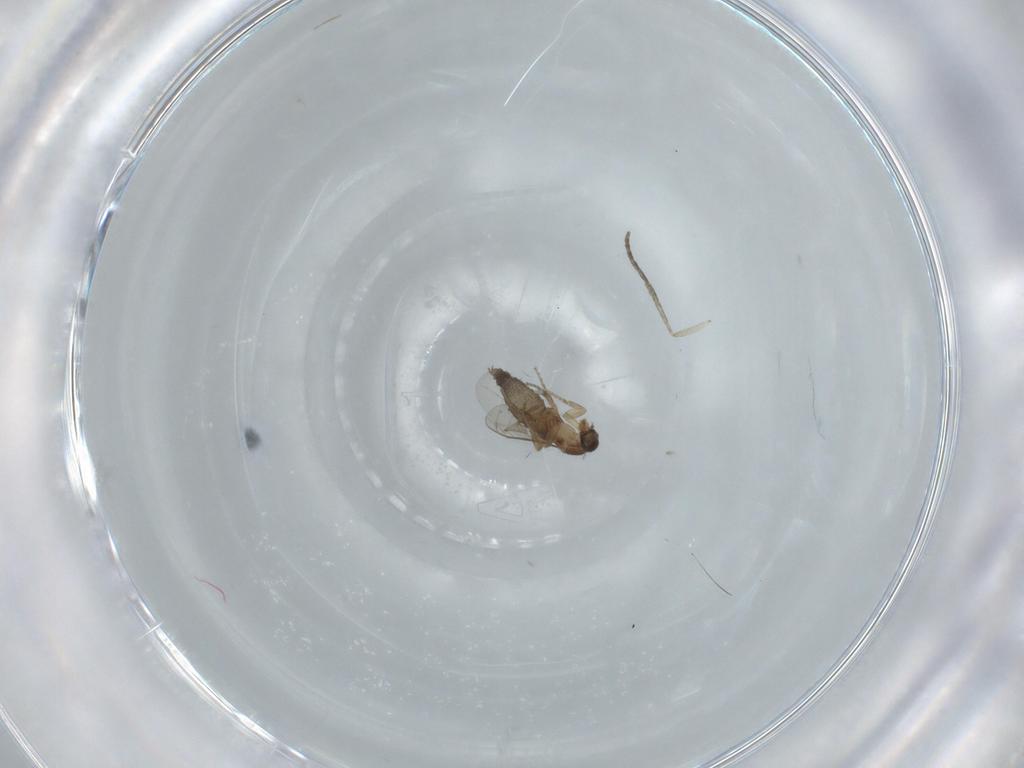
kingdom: Animalia
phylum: Arthropoda
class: Insecta
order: Diptera
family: Phoridae
